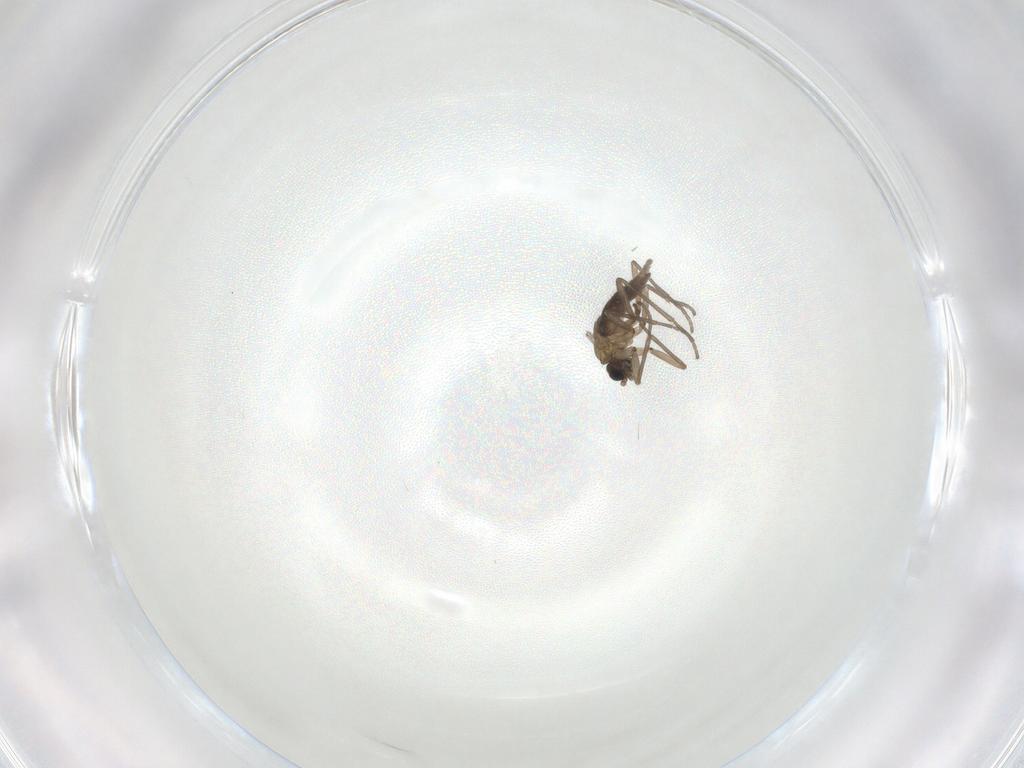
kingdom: Animalia
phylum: Arthropoda
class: Insecta
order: Diptera
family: Sciaridae
